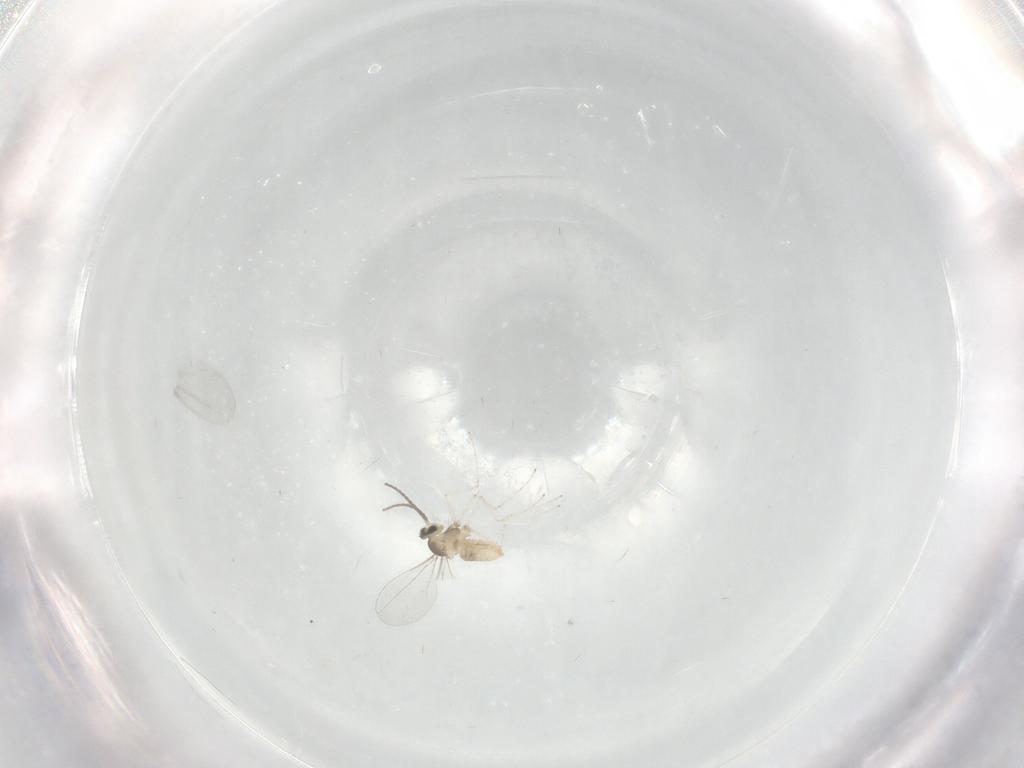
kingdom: Animalia
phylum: Arthropoda
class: Insecta
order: Diptera
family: Cecidomyiidae
